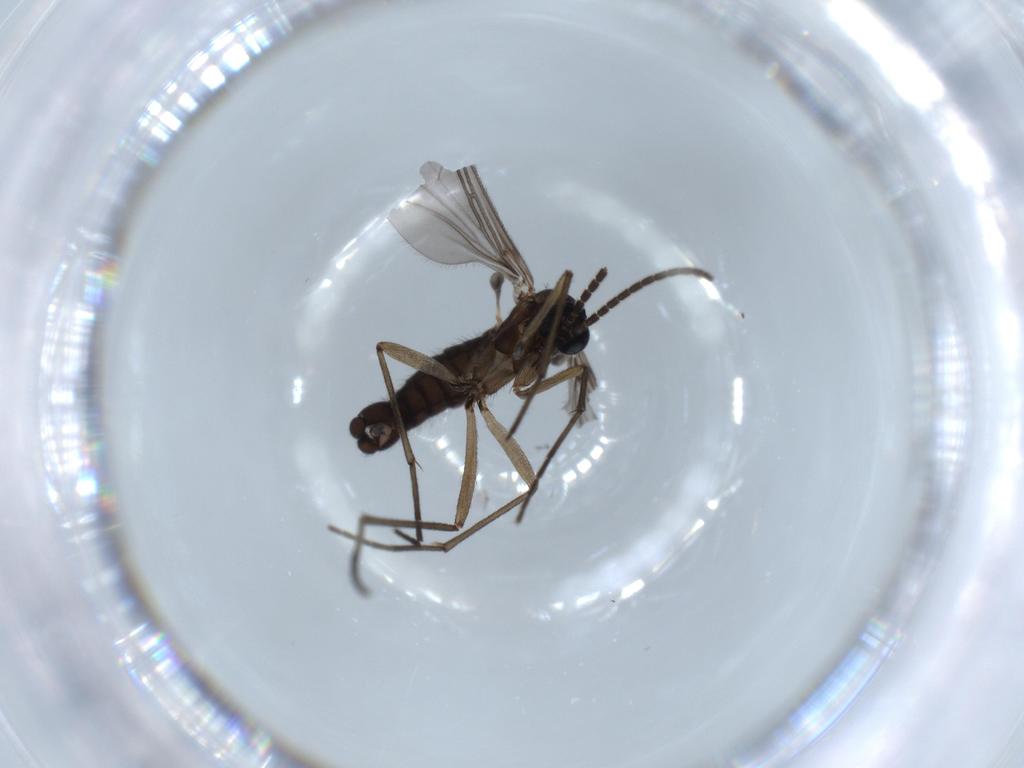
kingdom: Animalia
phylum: Arthropoda
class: Insecta
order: Diptera
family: Sciaridae
